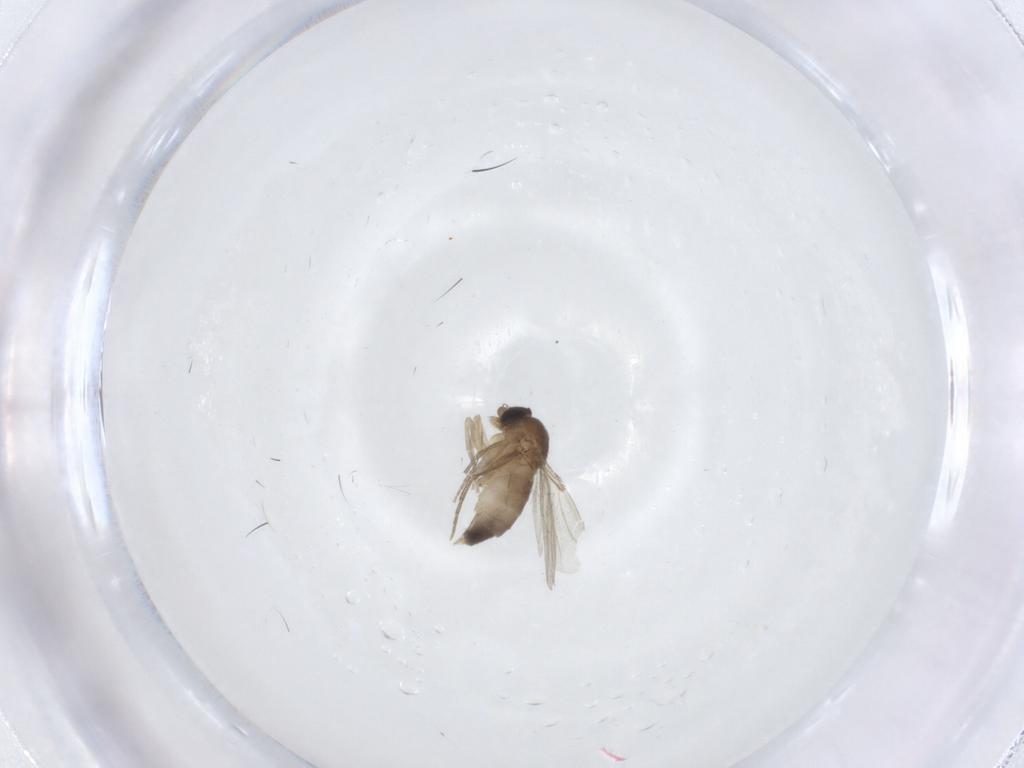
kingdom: Animalia
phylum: Arthropoda
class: Insecta
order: Diptera
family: Phoridae
